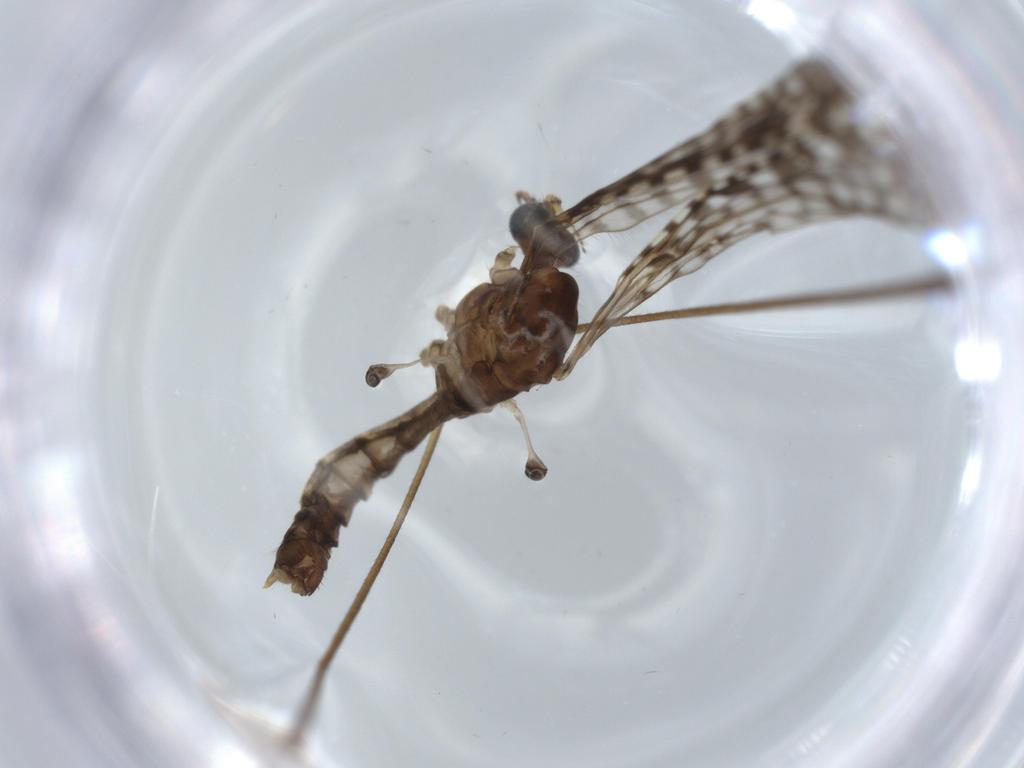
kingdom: Animalia
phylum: Arthropoda
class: Insecta
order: Diptera
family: Limoniidae
